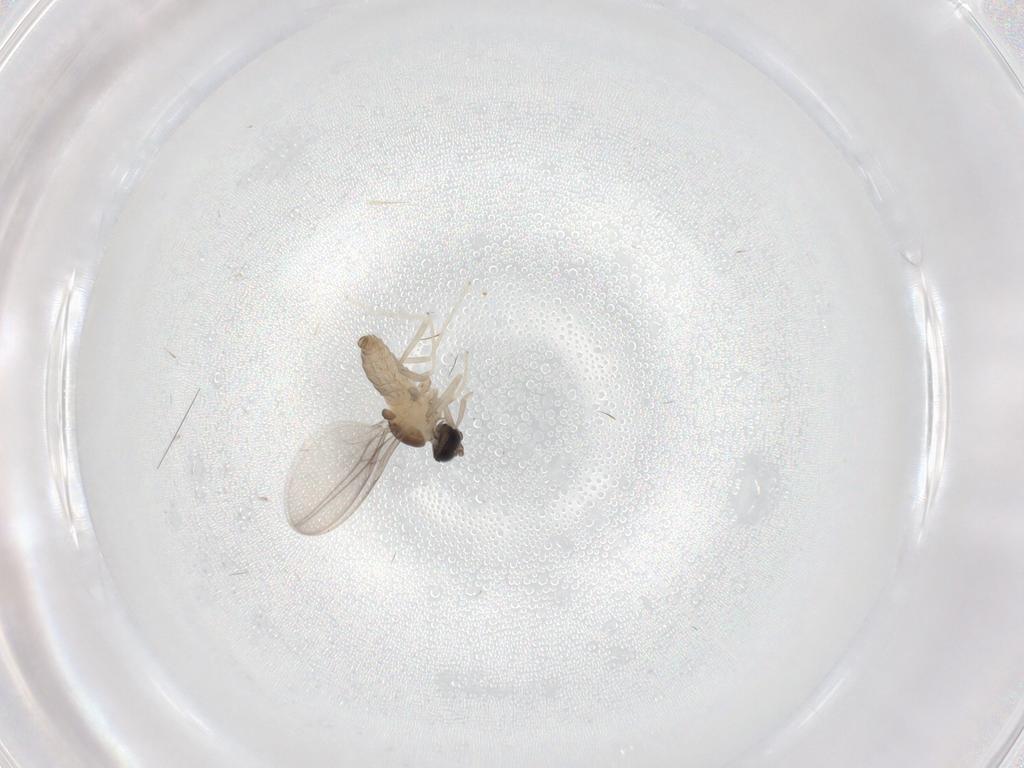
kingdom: Animalia
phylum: Arthropoda
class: Insecta
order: Diptera
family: Cecidomyiidae
